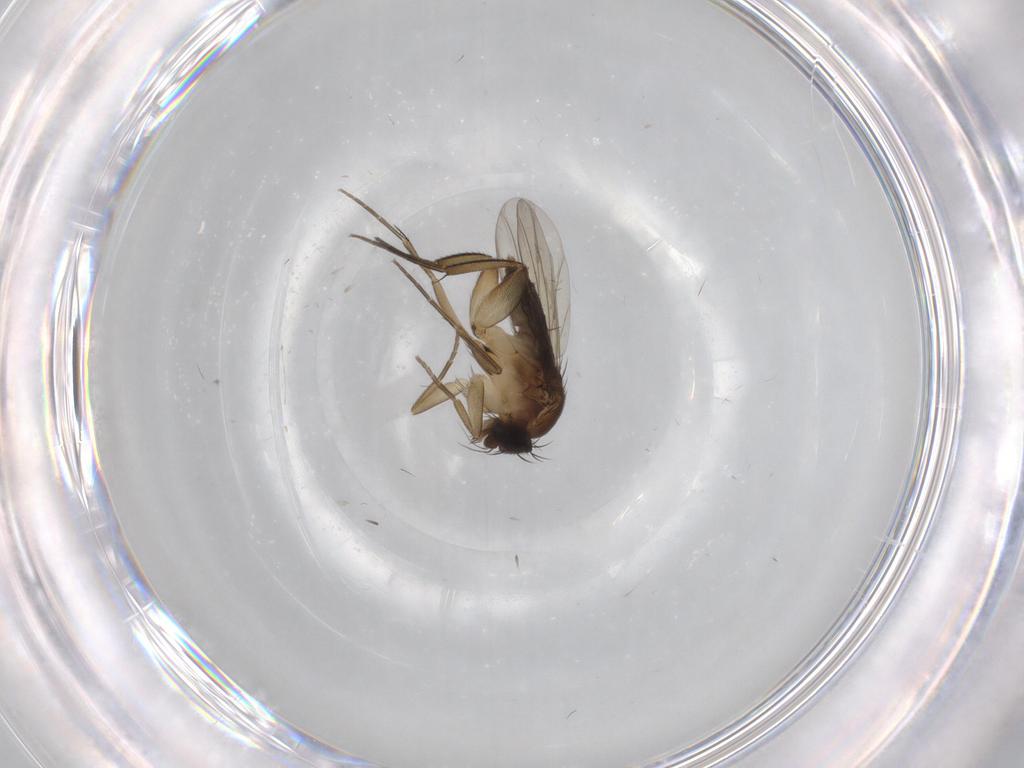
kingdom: Animalia
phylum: Arthropoda
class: Insecta
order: Diptera
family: Phoridae
